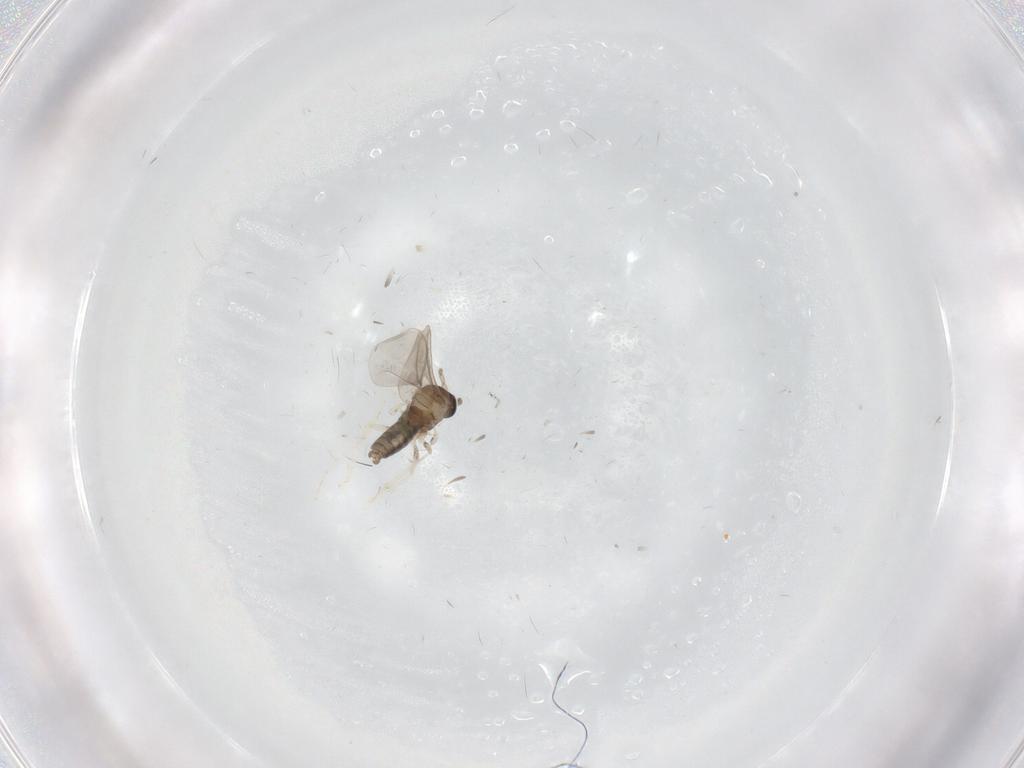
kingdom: Animalia
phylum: Arthropoda
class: Insecta
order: Diptera
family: Cecidomyiidae
